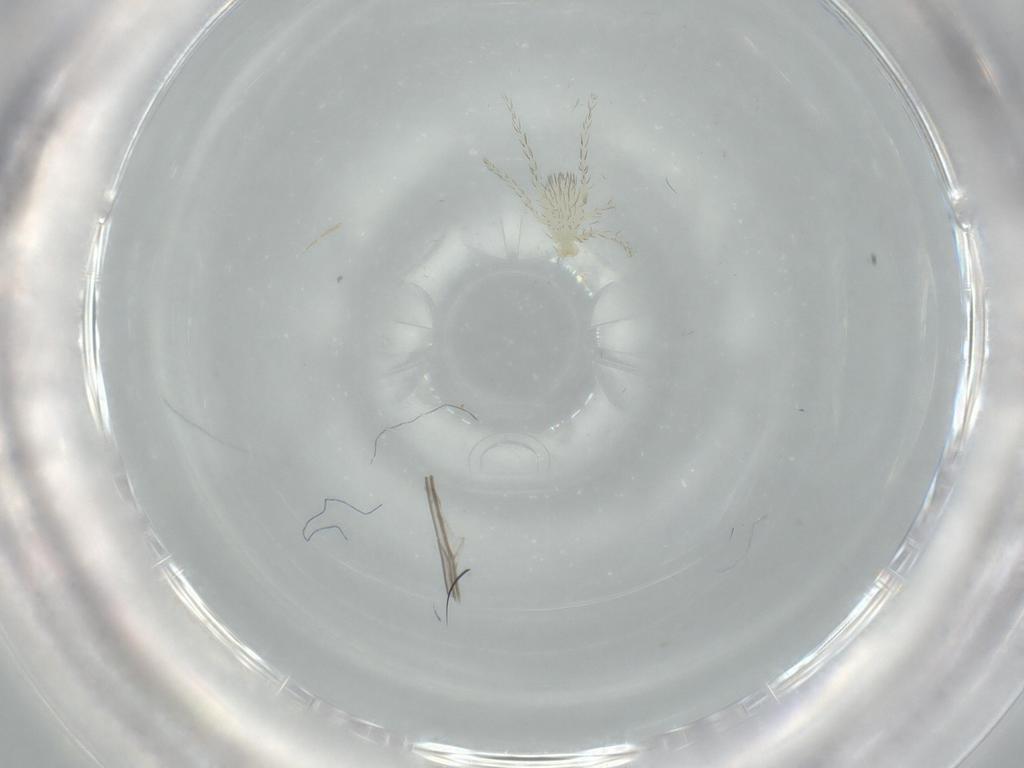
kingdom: Animalia
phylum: Arthropoda
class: Arachnida
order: Trombidiformes
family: Anystidae
